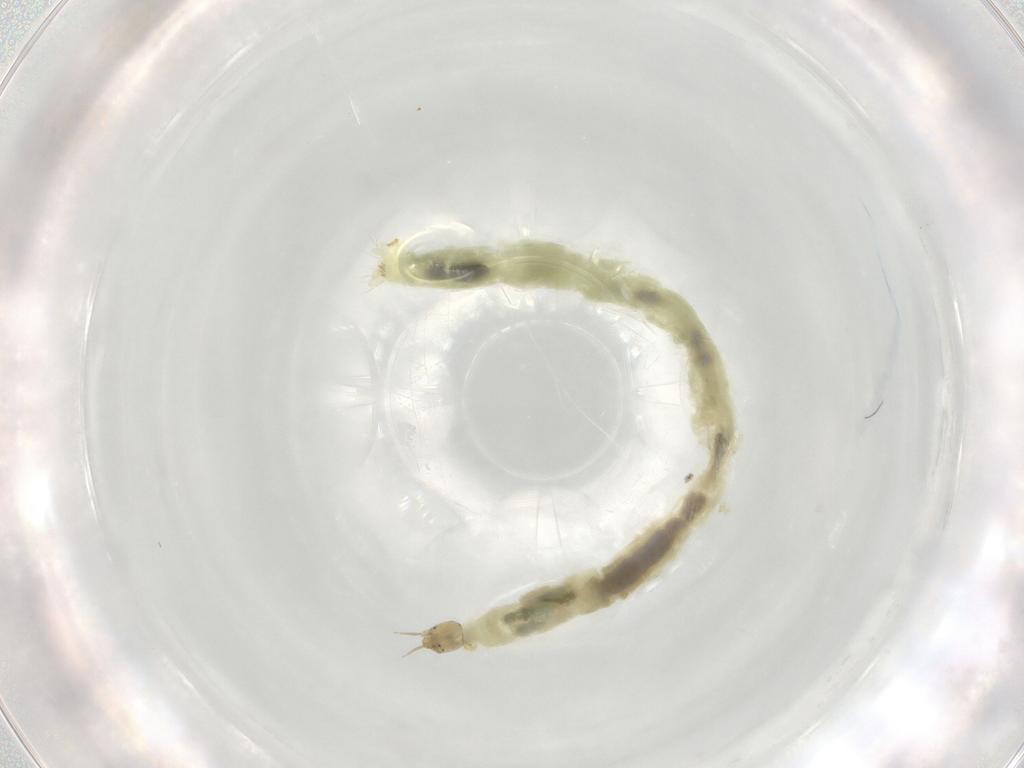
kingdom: Animalia
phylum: Arthropoda
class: Insecta
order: Diptera
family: Chironomidae
